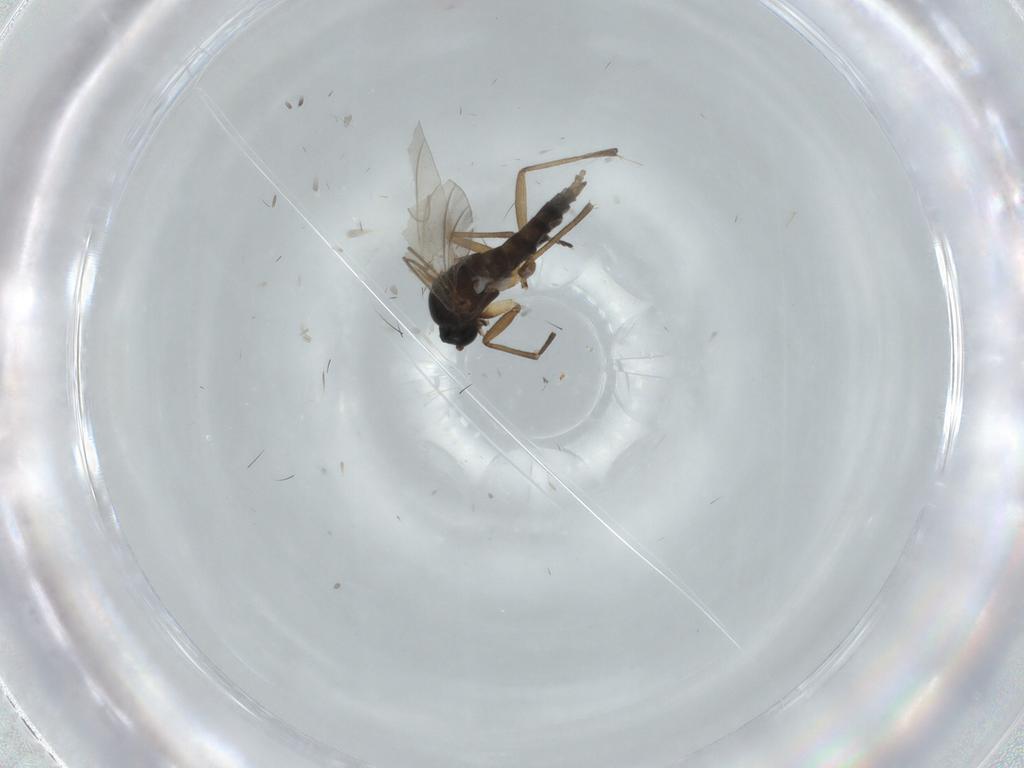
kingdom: Animalia
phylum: Arthropoda
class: Insecta
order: Diptera
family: Sciaridae
